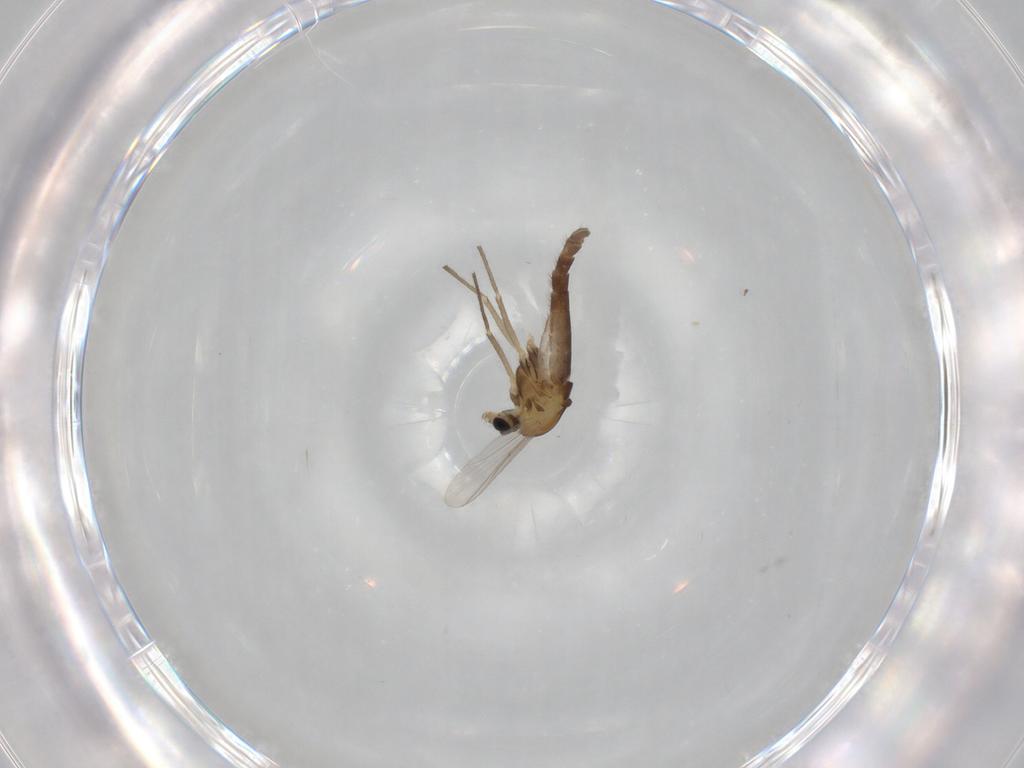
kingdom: Animalia
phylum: Arthropoda
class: Insecta
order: Diptera
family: Chironomidae
